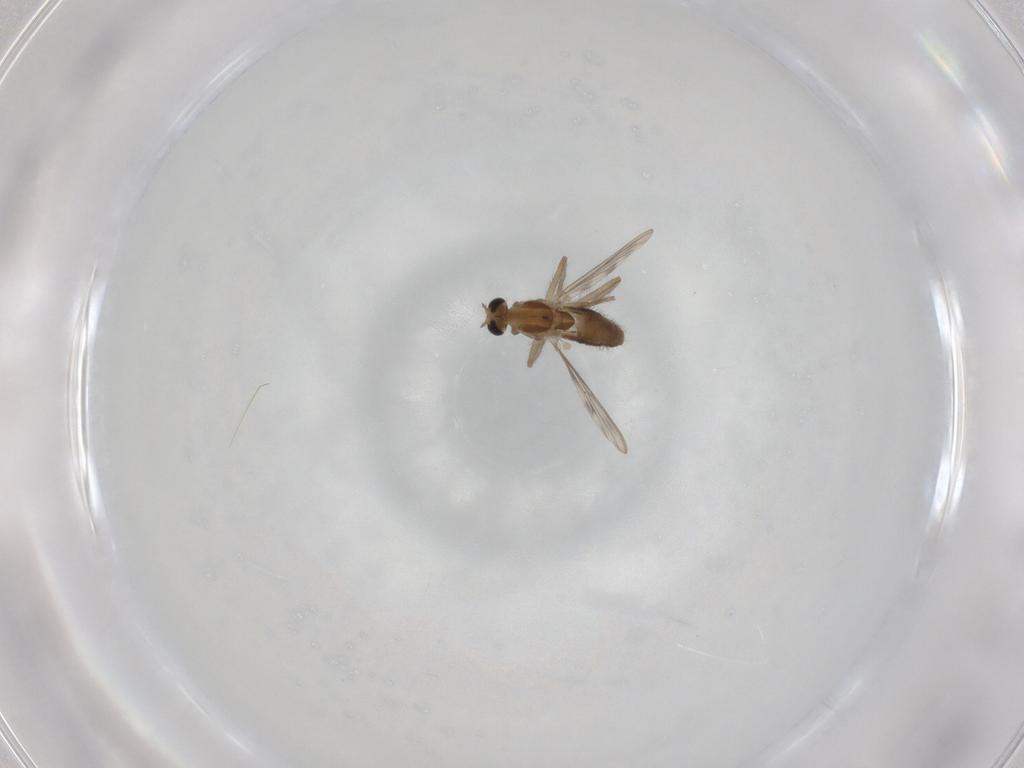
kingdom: Animalia
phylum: Arthropoda
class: Insecta
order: Diptera
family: Chironomidae
